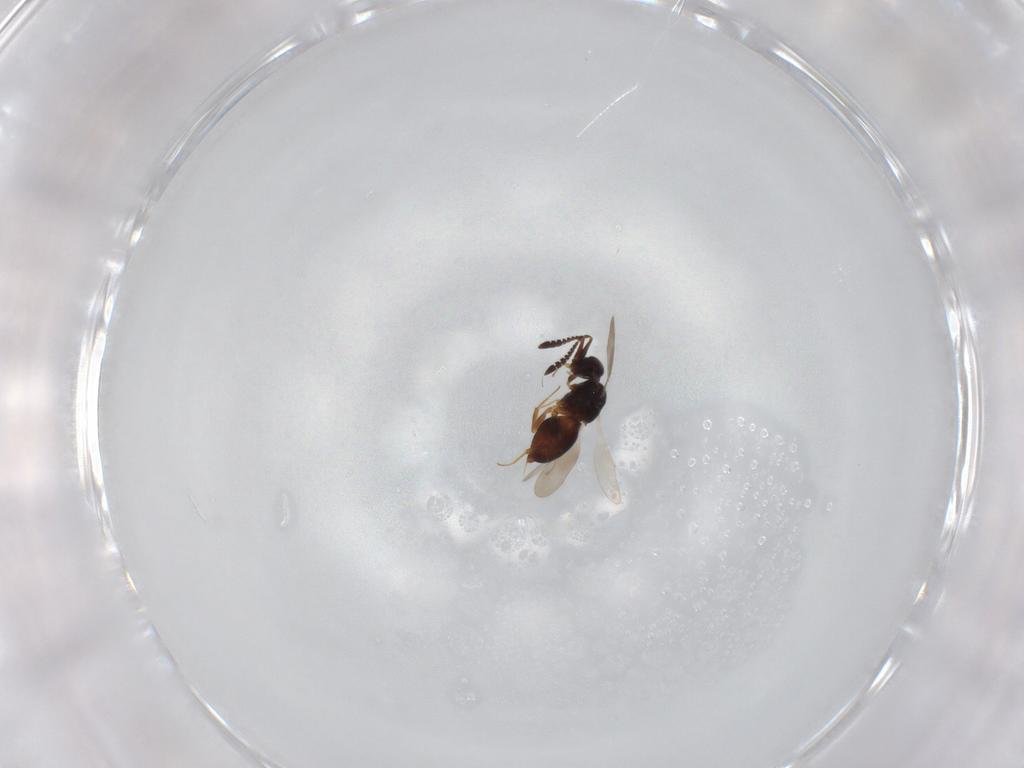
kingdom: Animalia
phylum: Arthropoda
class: Insecta
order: Hymenoptera
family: Ceraphronidae
